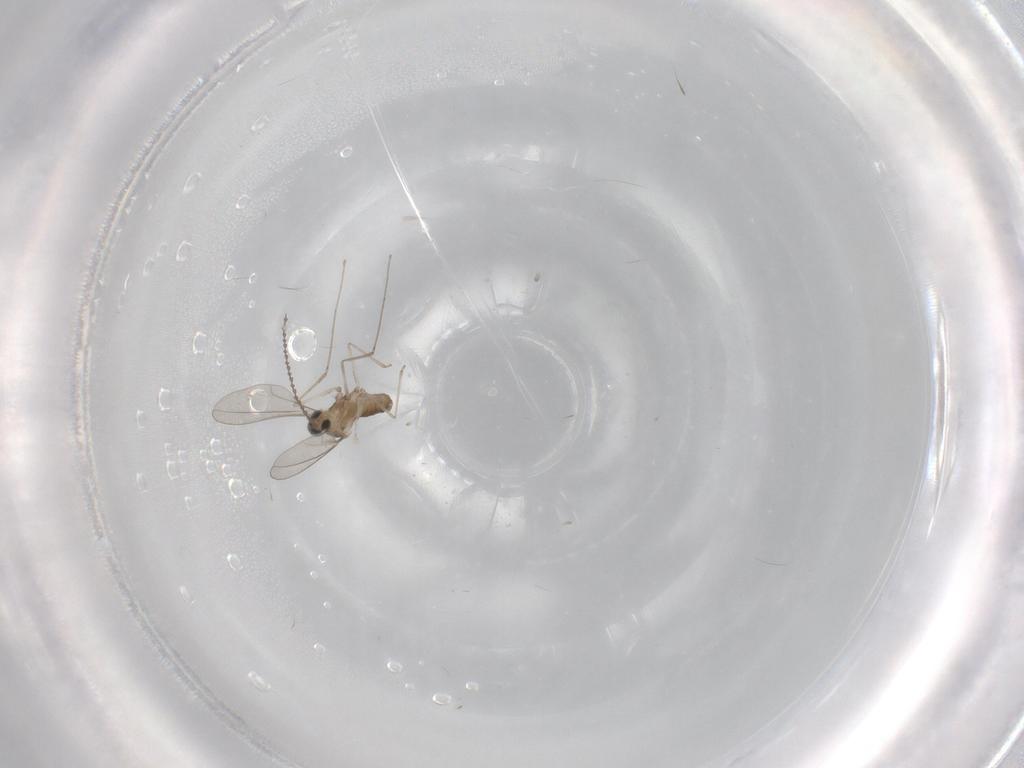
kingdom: Animalia
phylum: Arthropoda
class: Insecta
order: Diptera
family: Cecidomyiidae
